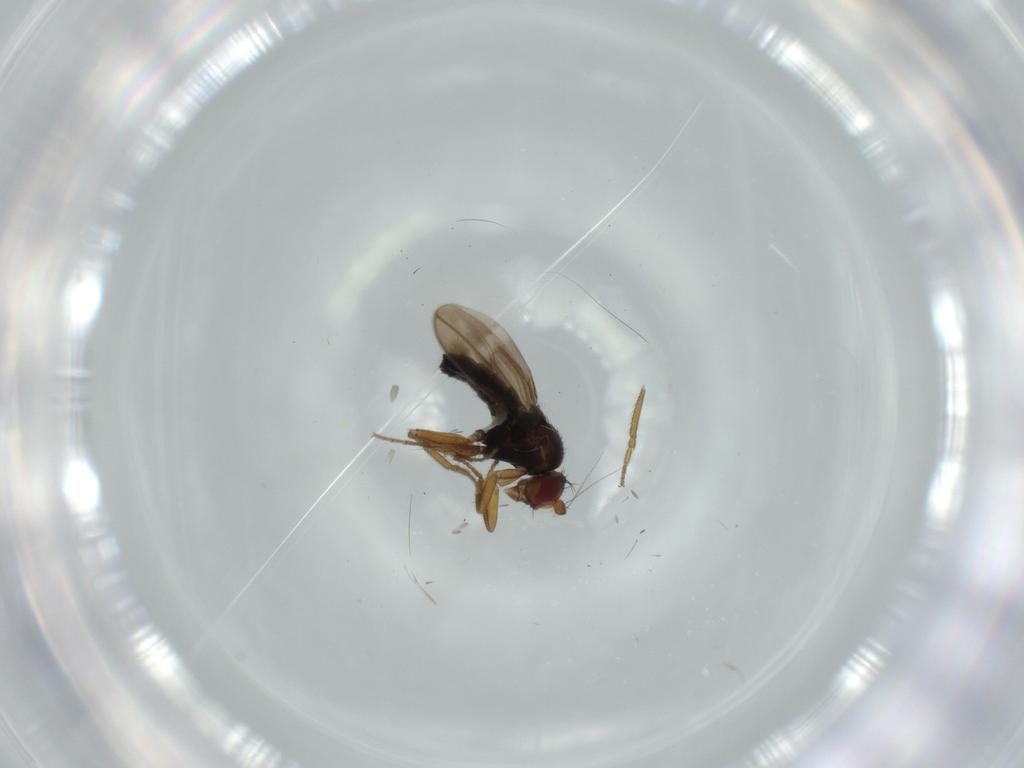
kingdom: Animalia
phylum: Arthropoda
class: Insecta
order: Diptera
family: Sphaeroceridae
